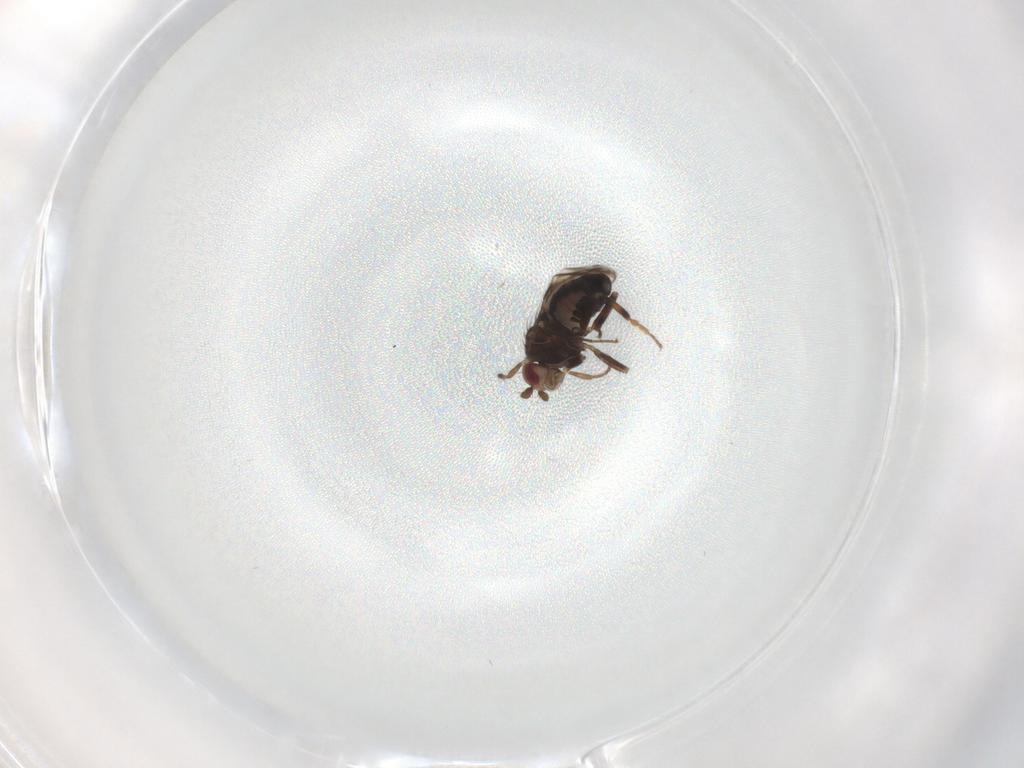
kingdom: Animalia
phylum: Arthropoda
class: Insecta
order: Diptera
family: Sphaeroceridae
